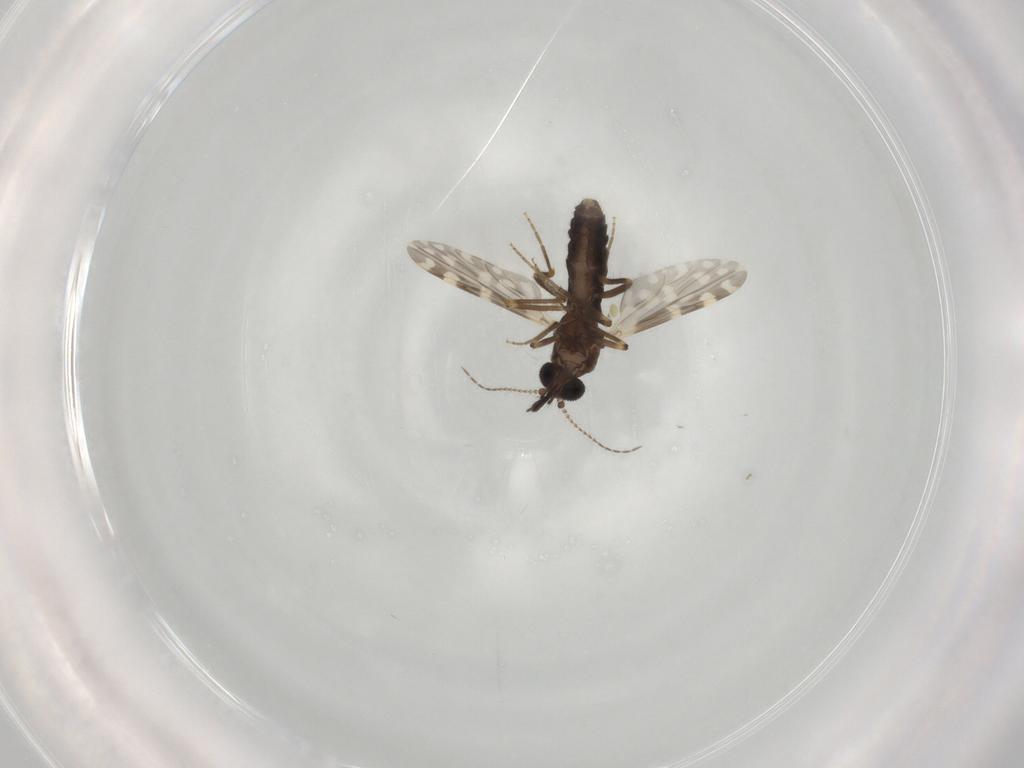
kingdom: Animalia
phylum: Arthropoda
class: Insecta
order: Diptera
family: Ceratopogonidae
